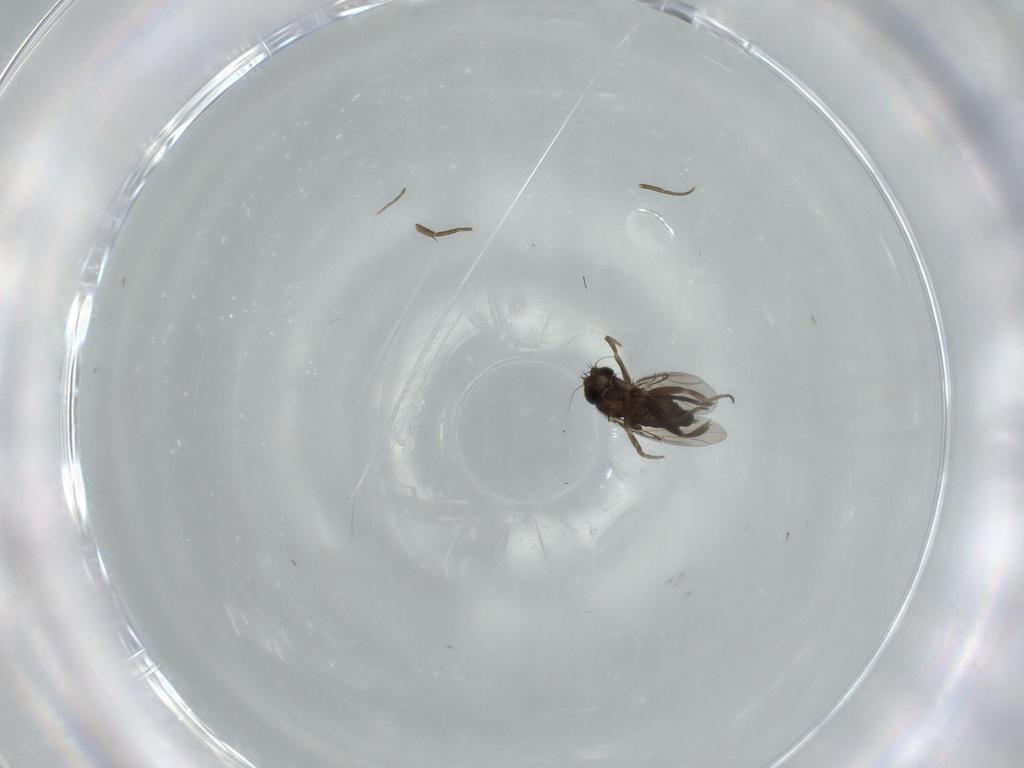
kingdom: Animalia
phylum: Arthropoda
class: Insecta
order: Diptera
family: Phoridae
